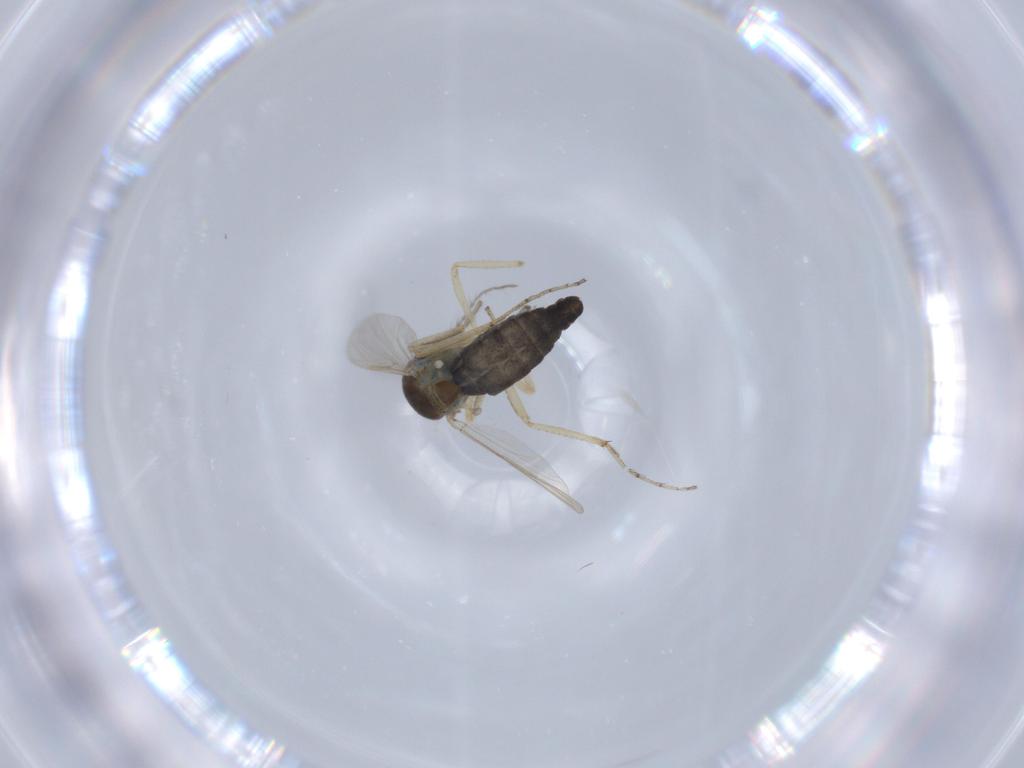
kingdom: Animalia
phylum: Arthropoda
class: Insecta
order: Diptera
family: Ceratopogonidae
